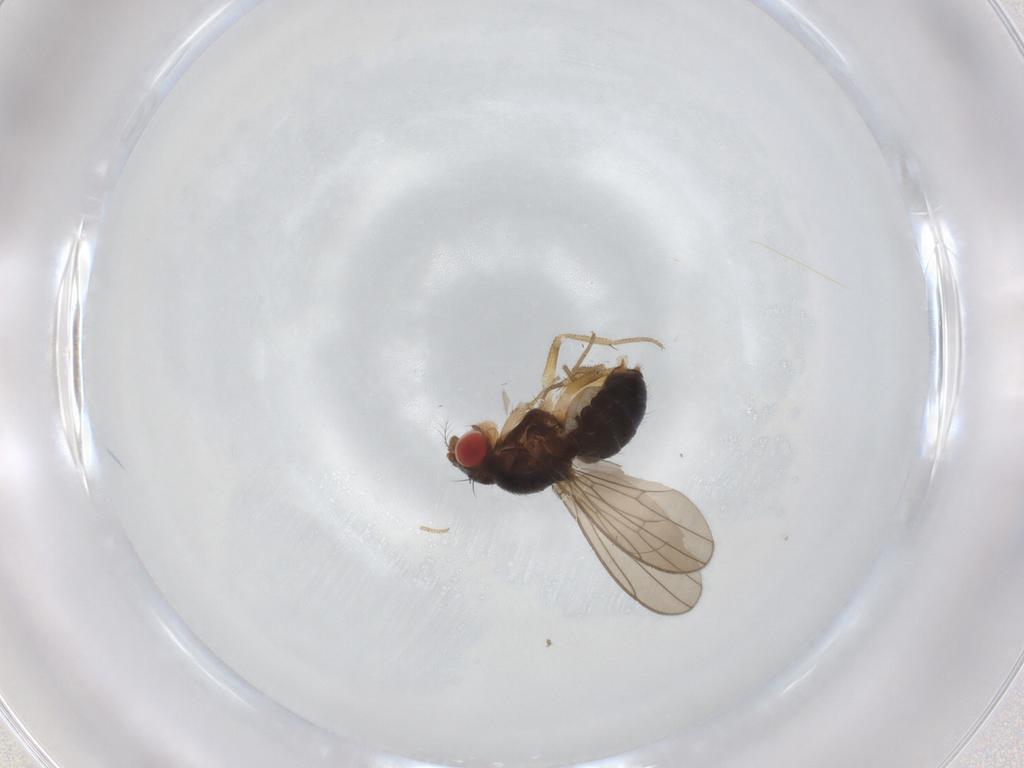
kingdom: Animalia
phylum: Arthropoda
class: Insecta
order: Diptera
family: Drosophilidae
